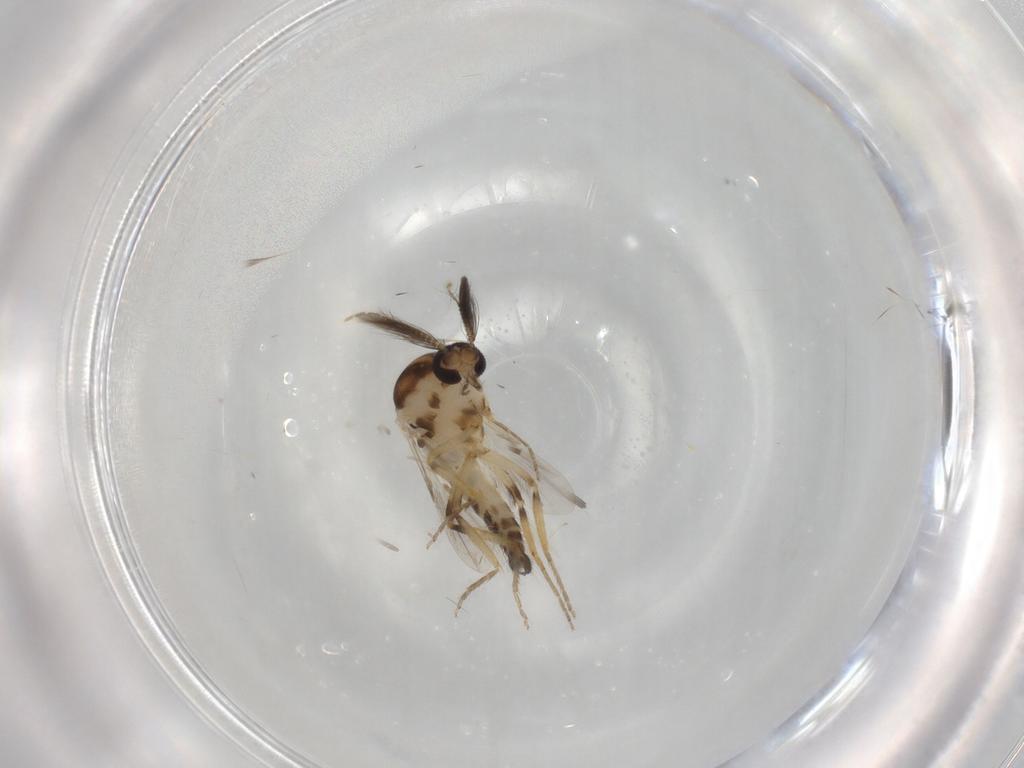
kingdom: Animalia
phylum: Arthropoda
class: Insecta
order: Diptera
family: Ceratopogonidae
